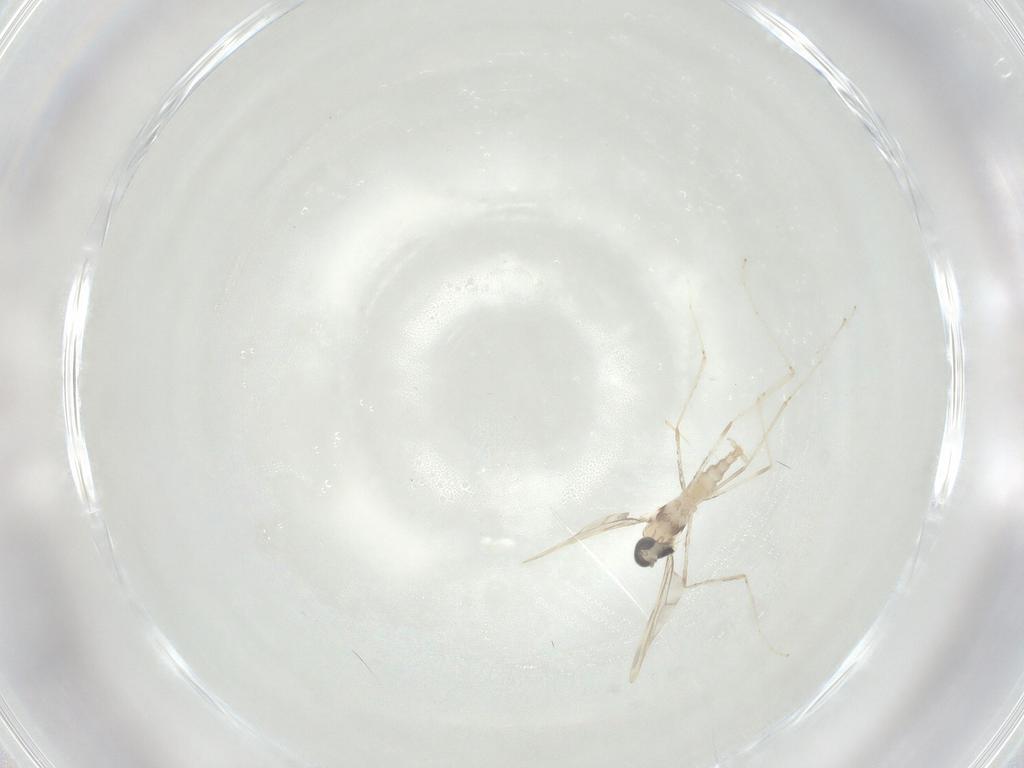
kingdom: Animalia
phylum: Arthropoda
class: Insecta
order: Diptera
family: Cecidomyiidae
